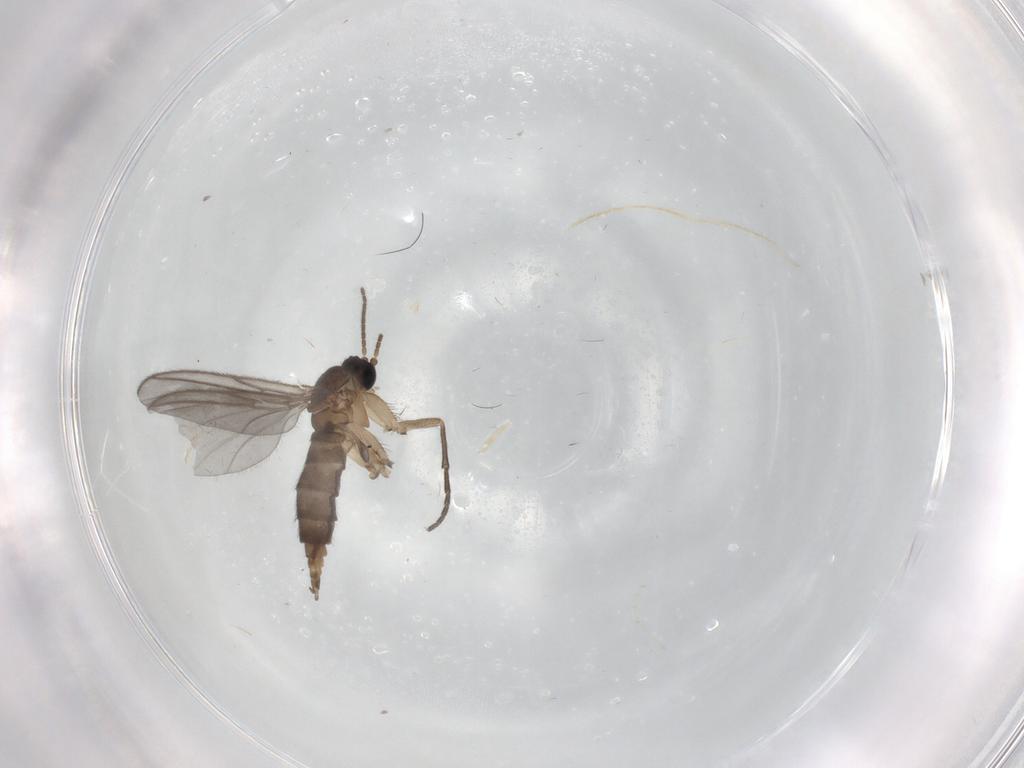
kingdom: Animalia
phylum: Arthropoda
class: Insecta
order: Diptera
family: Sciaridae
